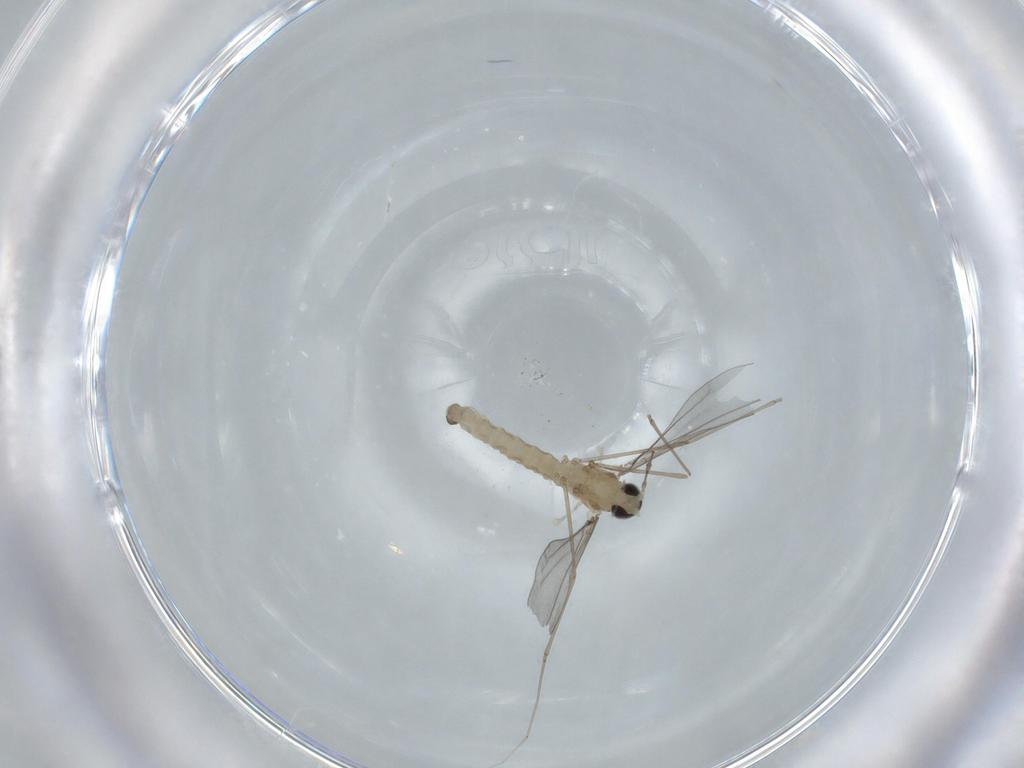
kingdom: Animalia
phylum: Arthropoda
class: Insecta
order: Diptera
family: Cecidomyiidae
